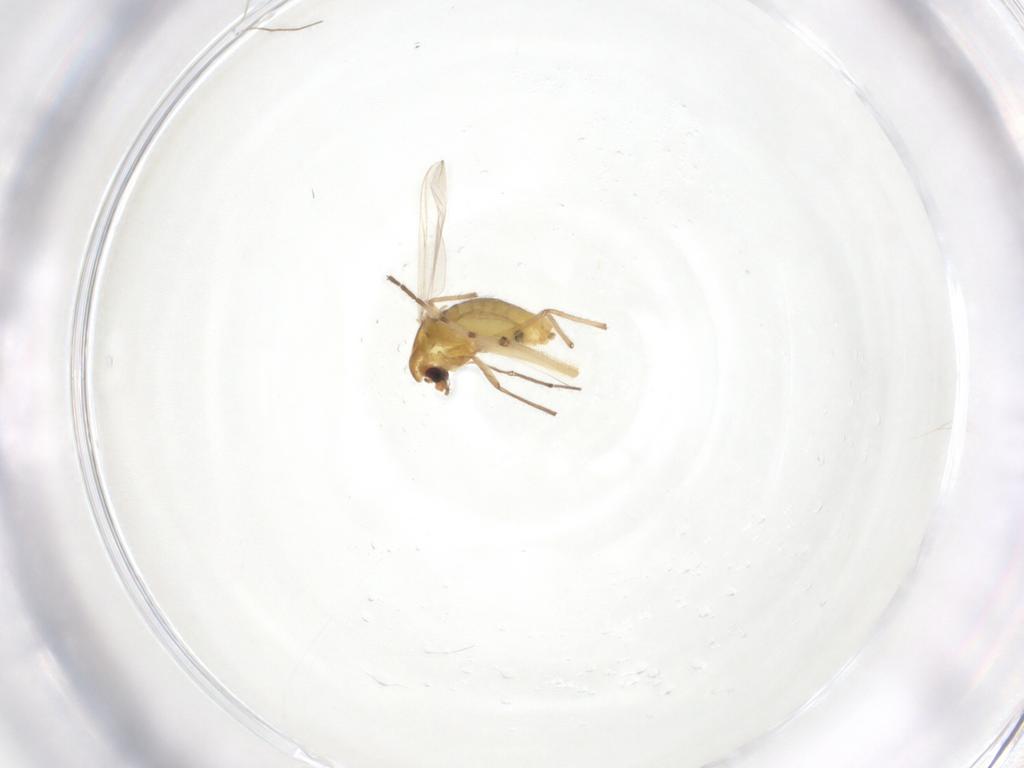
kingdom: Animalia
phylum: Arthropoda
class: Insecta
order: Diptera
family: Chironomidae
